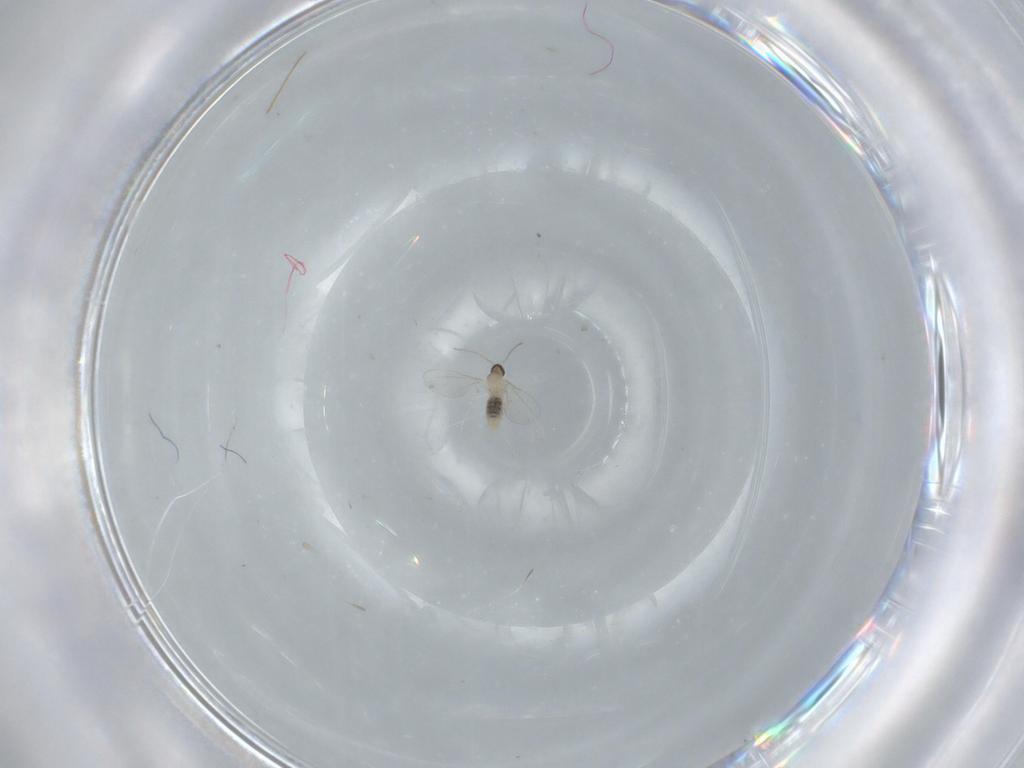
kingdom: Animalia
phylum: Arthropoda
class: Insecta
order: Diptera
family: Cecidomyiidae
